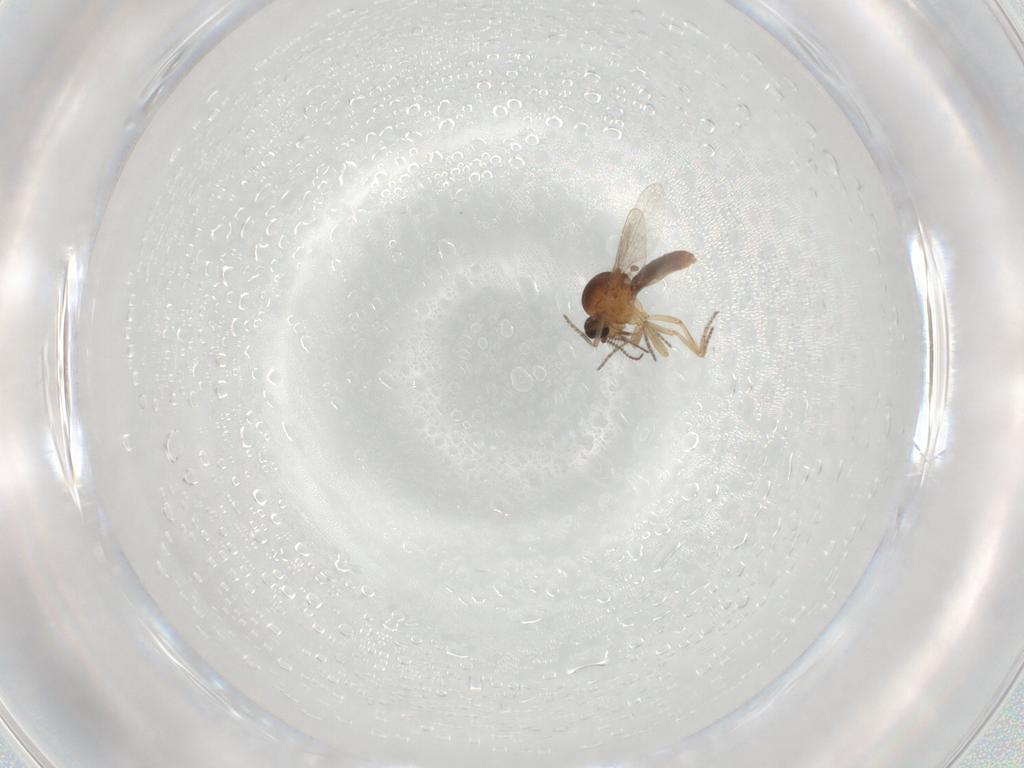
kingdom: Animalia
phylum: Arthropoda
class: Insecta
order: Diptera
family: Ceratopogonidae
